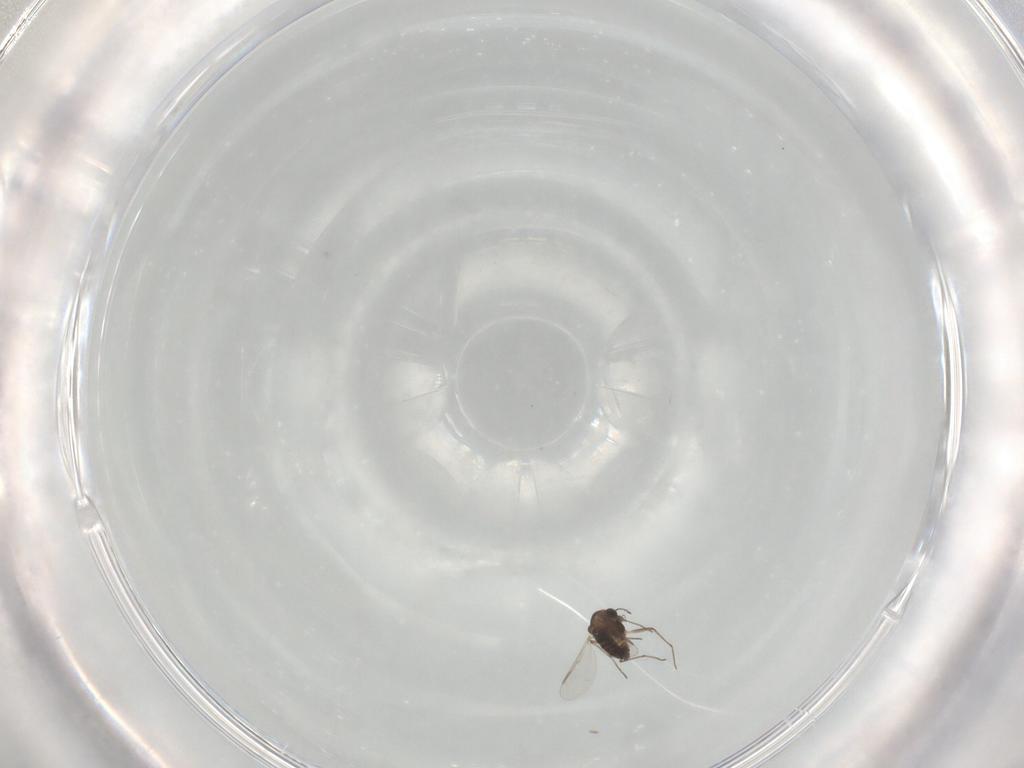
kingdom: Animalia
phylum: Arthropoda
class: Insecta
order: Diptera
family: Chironomidae
